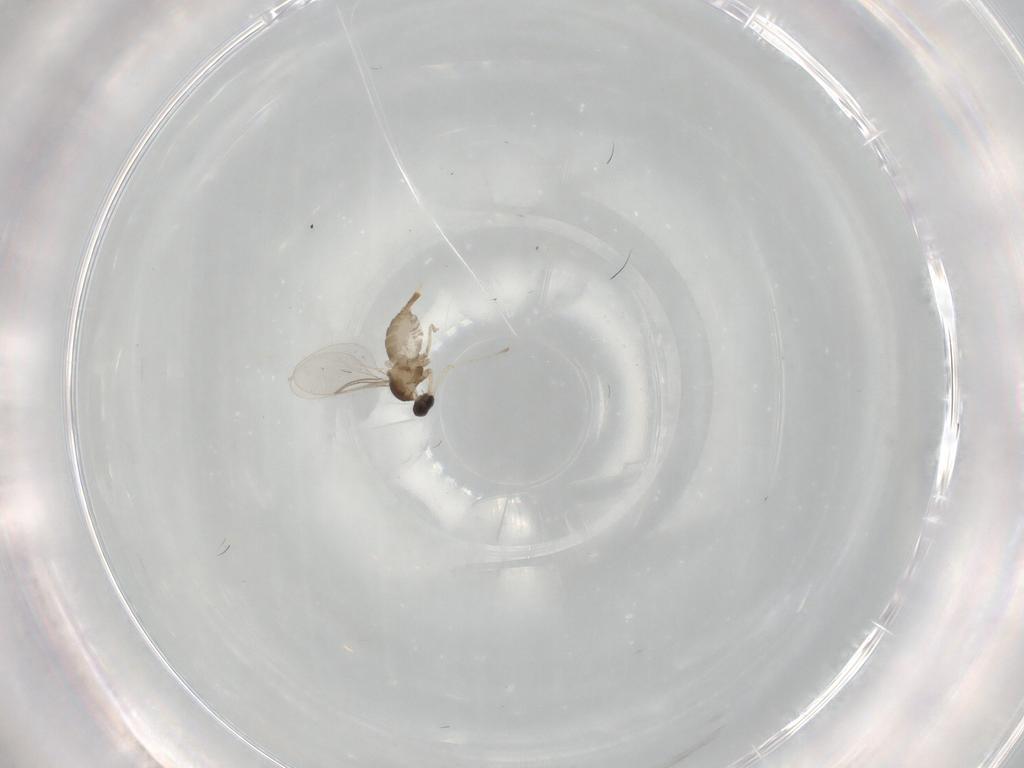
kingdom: Animalia
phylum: Arthropoda
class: Insecta
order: Diptera
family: Cecidomyiidae
